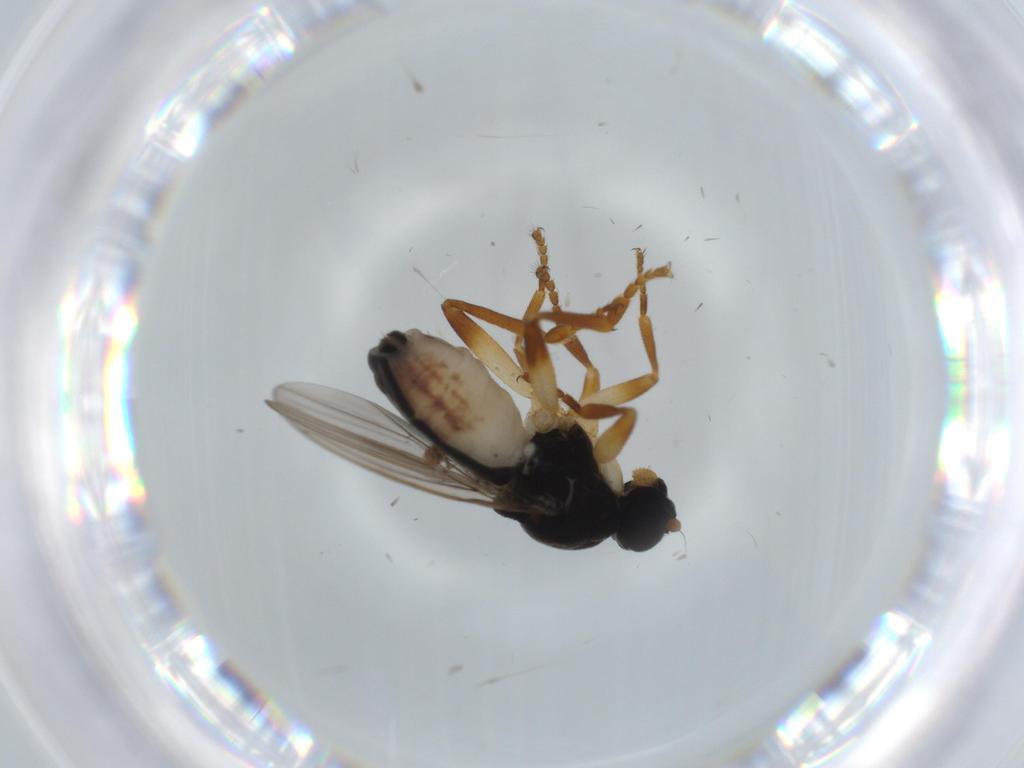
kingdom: Animalia
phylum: Arthropoda
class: Insecta
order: Diptera
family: Sphaeroceridae
